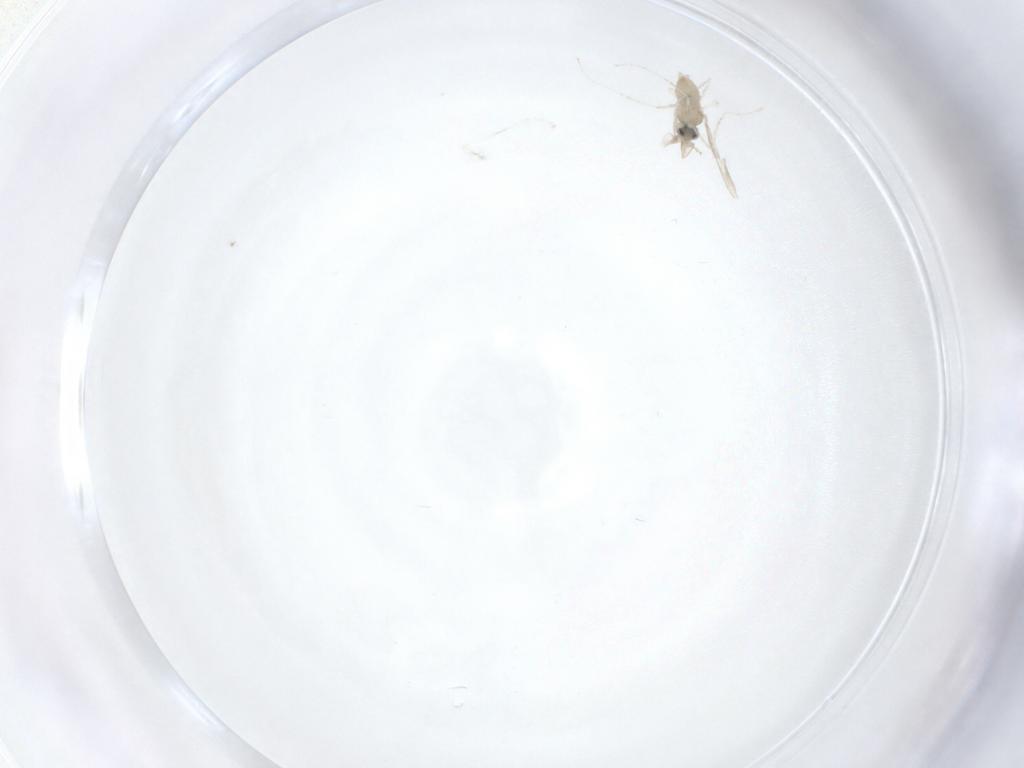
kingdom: Animalia
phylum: Arthropoda
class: Insecta
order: Diptera
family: Cecidomyiidae
